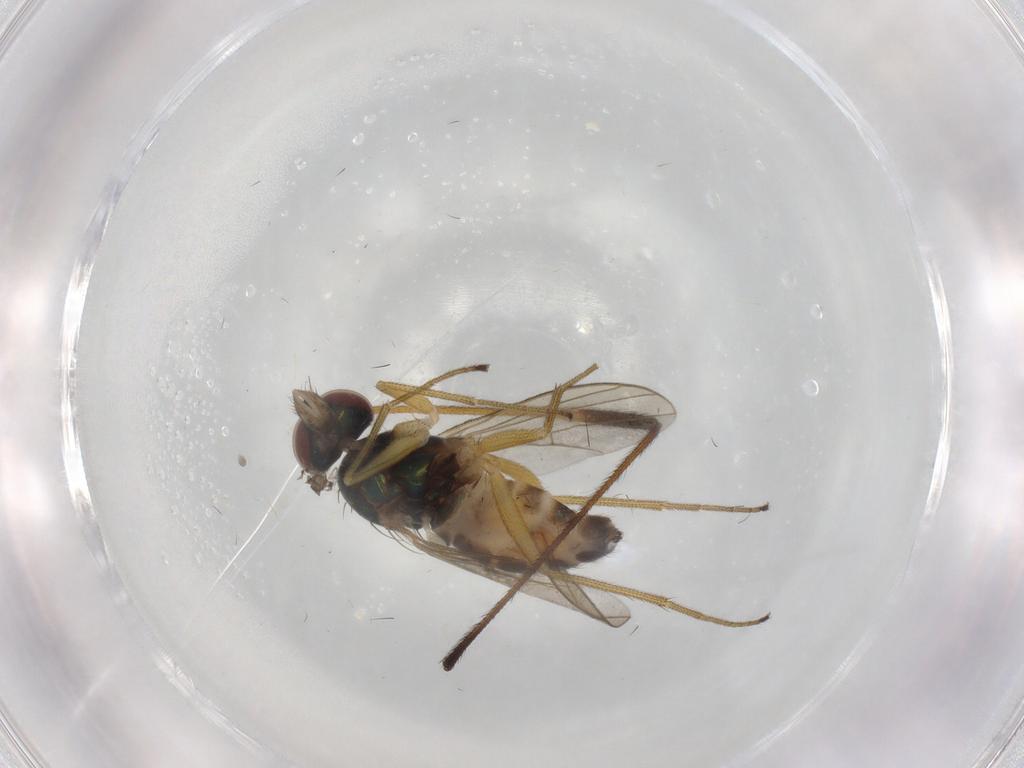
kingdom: Animalia
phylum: Arthropoda
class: Insecta
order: Diptera
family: Dolichopodidae
